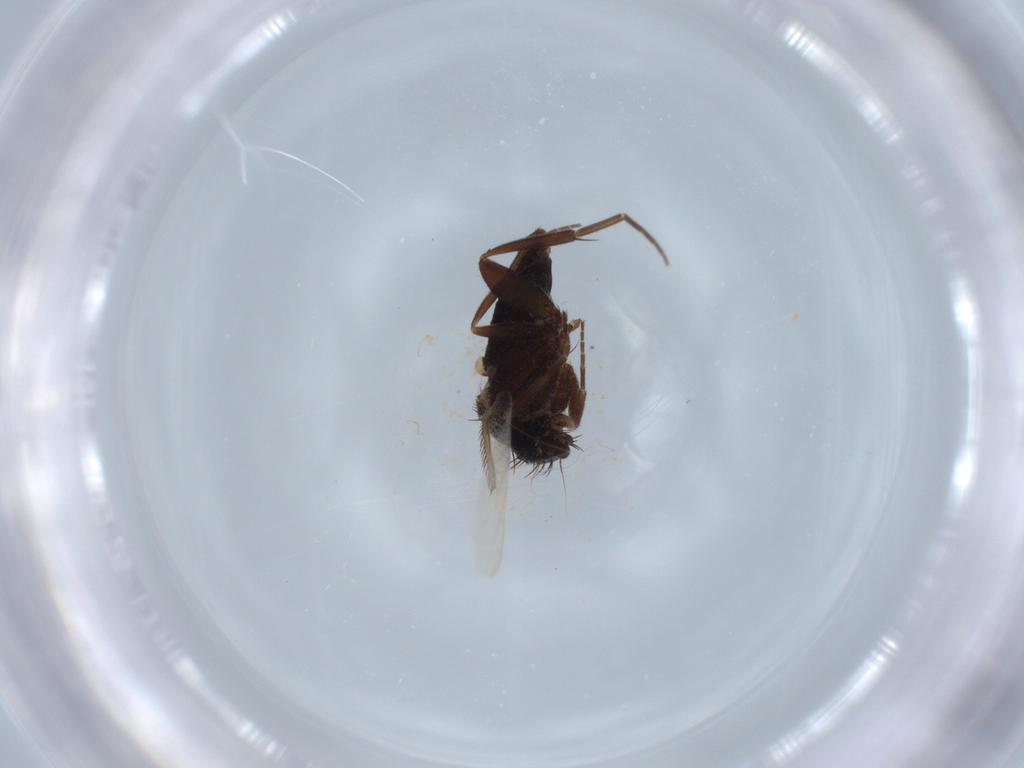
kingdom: Animalia
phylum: Arthropoda
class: Insecta
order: Diptera
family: Phoridae
